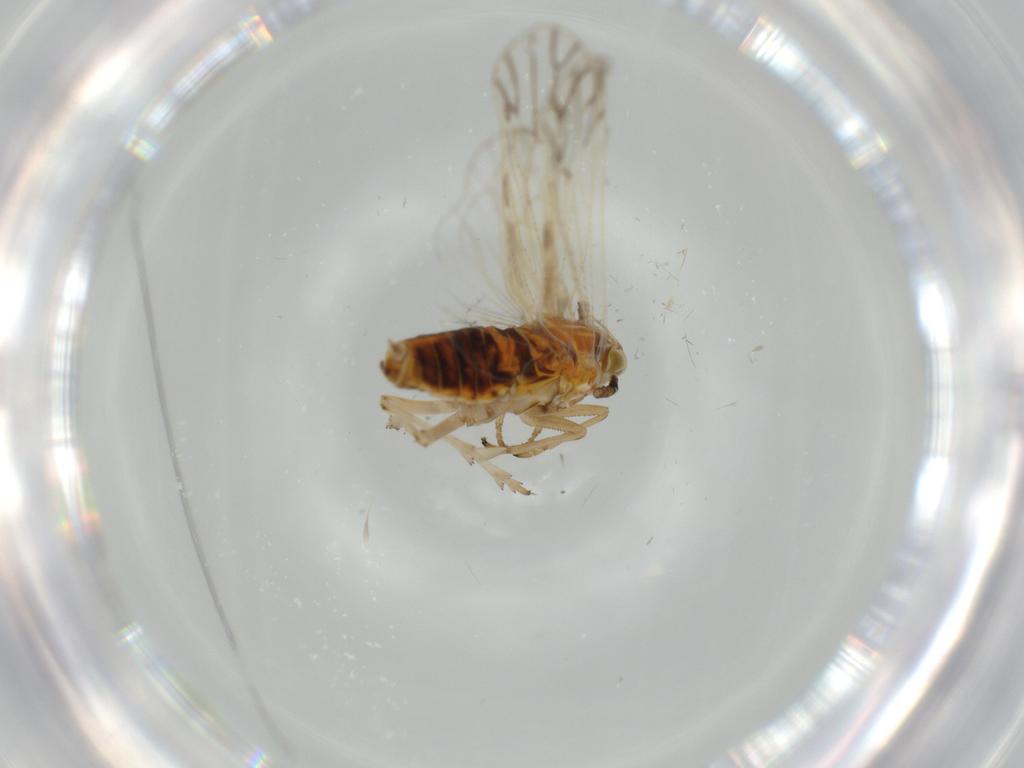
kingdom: Animalia
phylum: Arthropoda
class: Insecta
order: Hemiptera
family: Delphacidae
